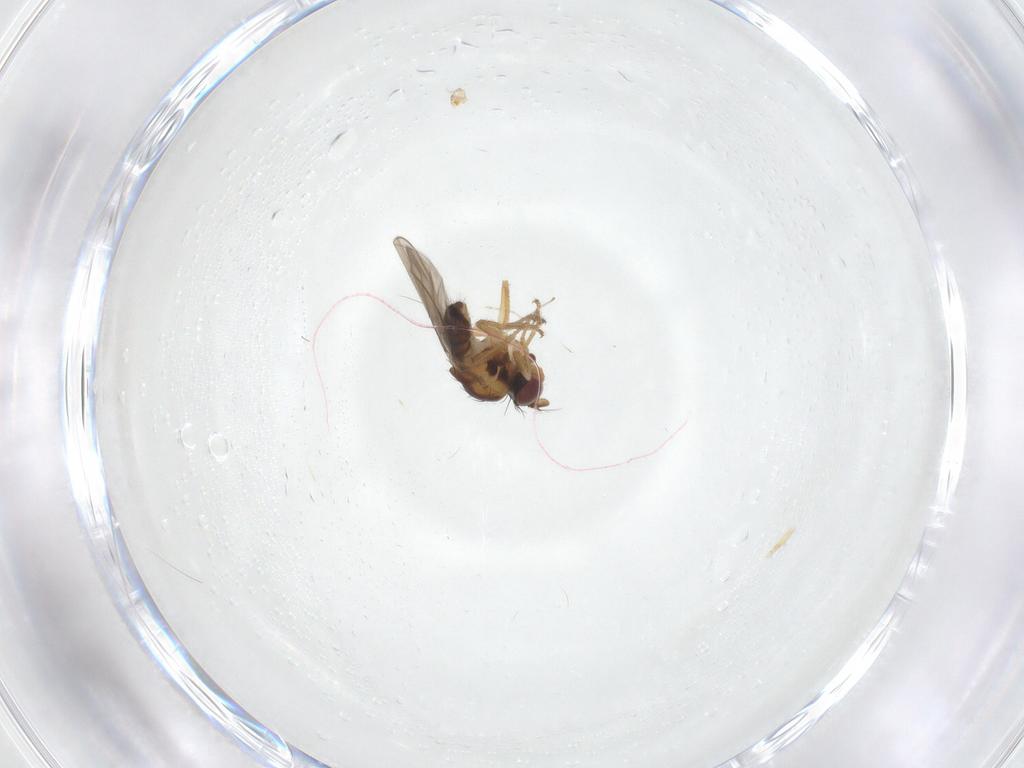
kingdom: Animalia
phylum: Arthropoda
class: Insecta
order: Diptera
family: Ephydridae
